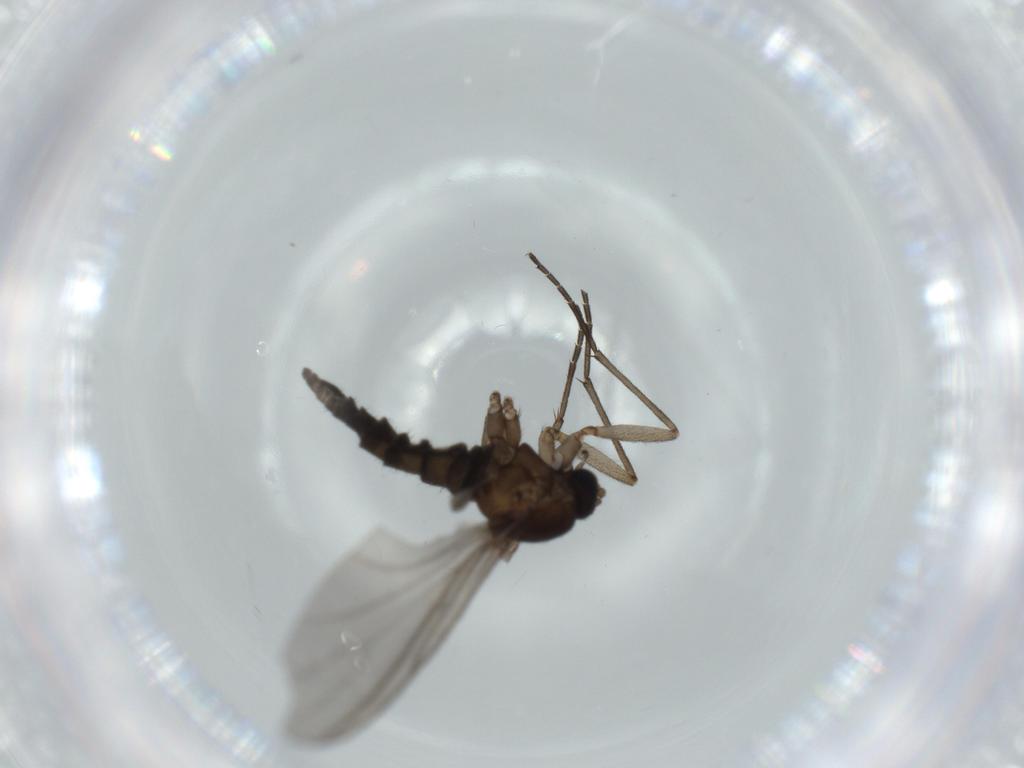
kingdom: Animalia
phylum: Arthropoda
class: Insecta
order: Diptera
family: Sciaridae
